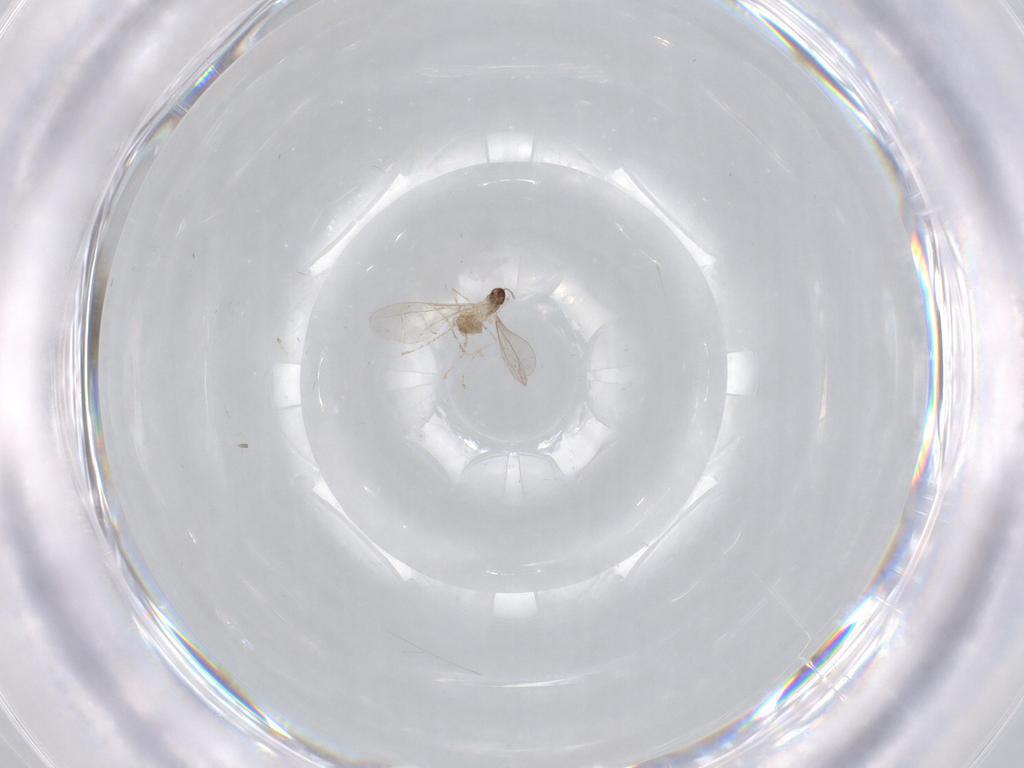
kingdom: Animalia
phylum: Arthropoda
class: Insecta
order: Diptera
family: Cecidomyiidae
